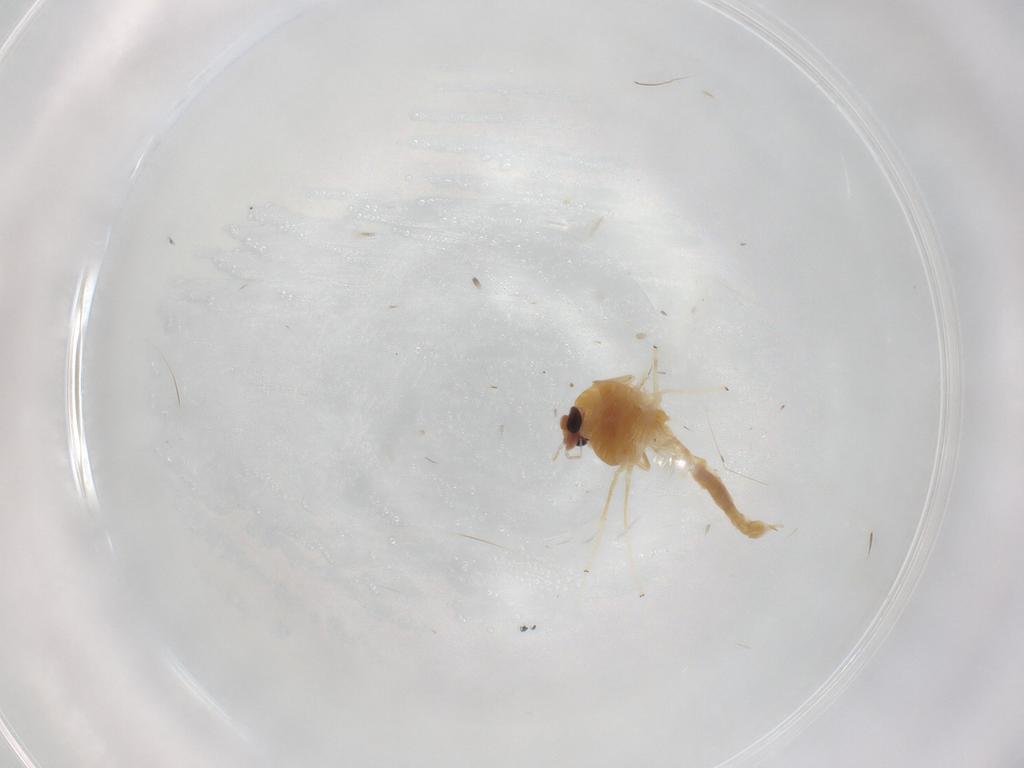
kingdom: Animalia
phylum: Arthropoda
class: Insecta
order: Diptera
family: Chironomidae
